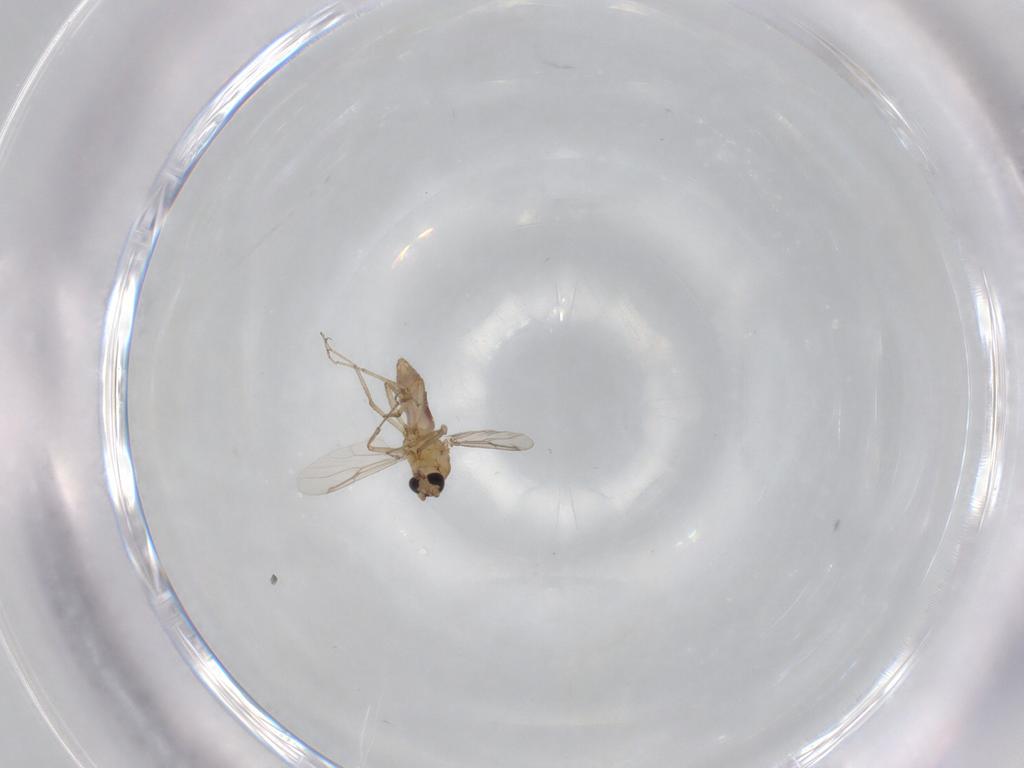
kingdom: Animalia
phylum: Arthropoda
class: Insecta
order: Diptera
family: Ceratopogonidae
